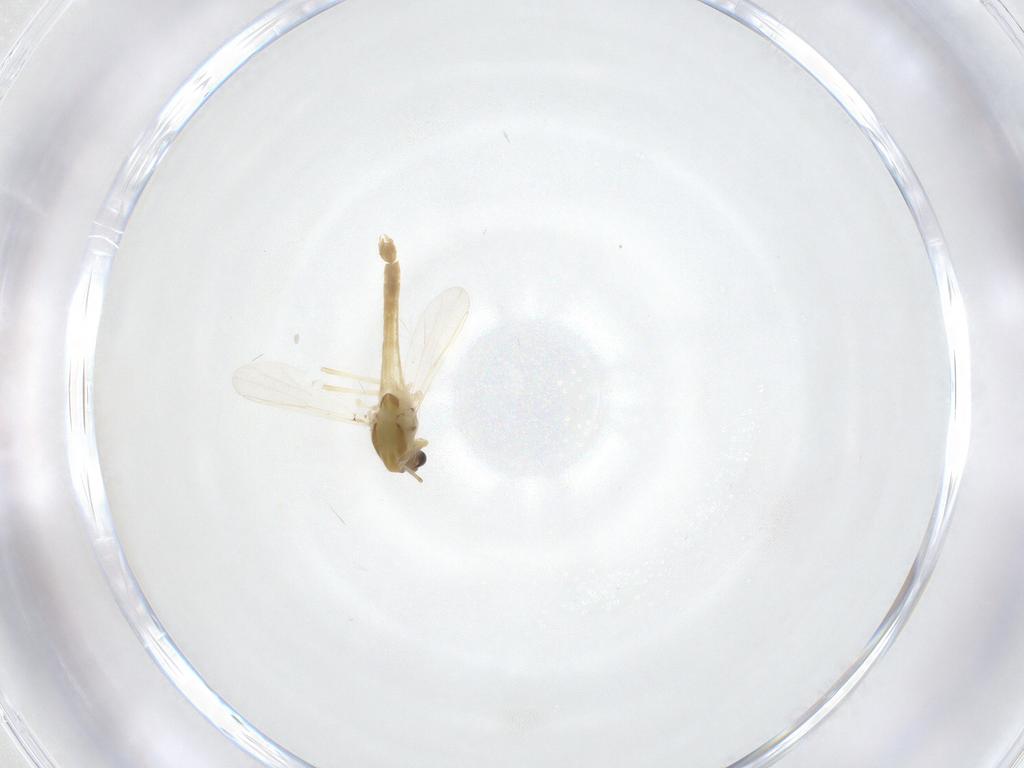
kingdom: Animalia
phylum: Arthropoda
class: Insecta
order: Diptera
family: Chironomidae
